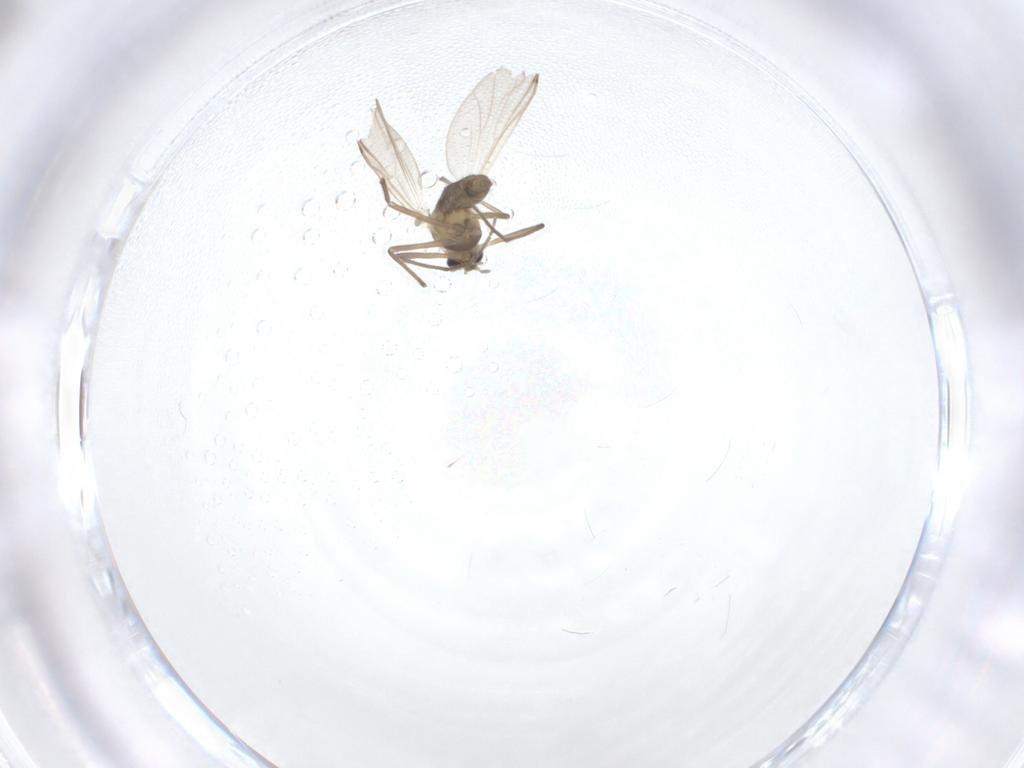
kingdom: Animalia
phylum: Arthropoda
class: Insecta
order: Diptera
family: Chironomidae
